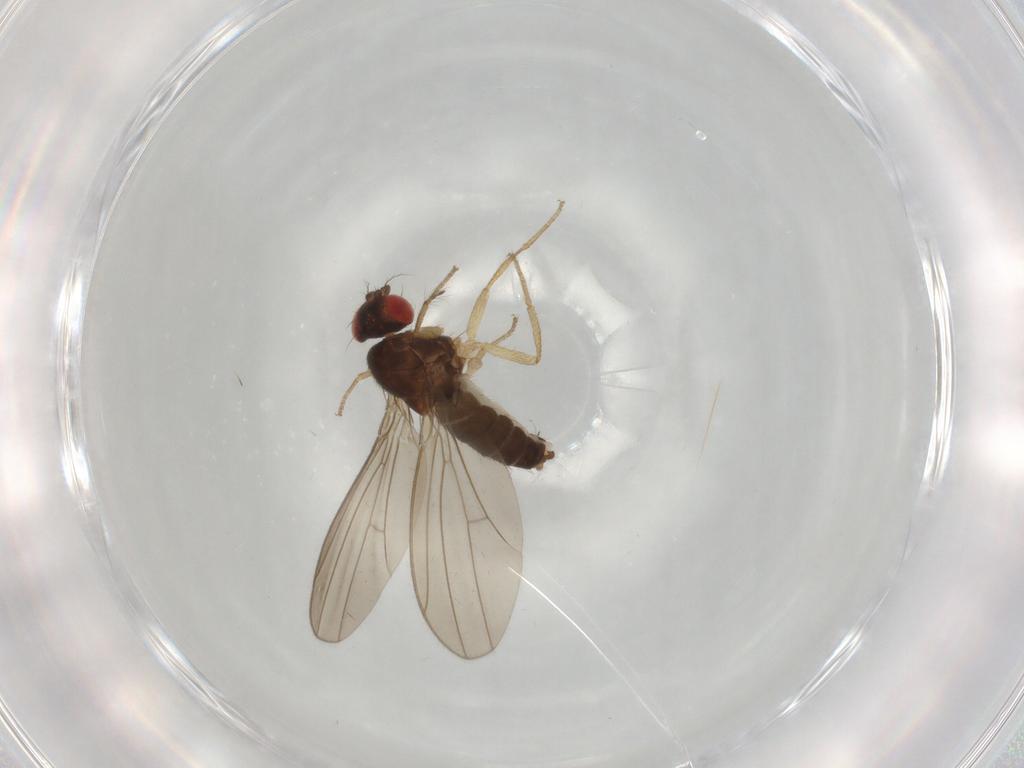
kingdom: Animalia
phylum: Arthropoda
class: Insecta
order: Diptera
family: Drosophilidae
